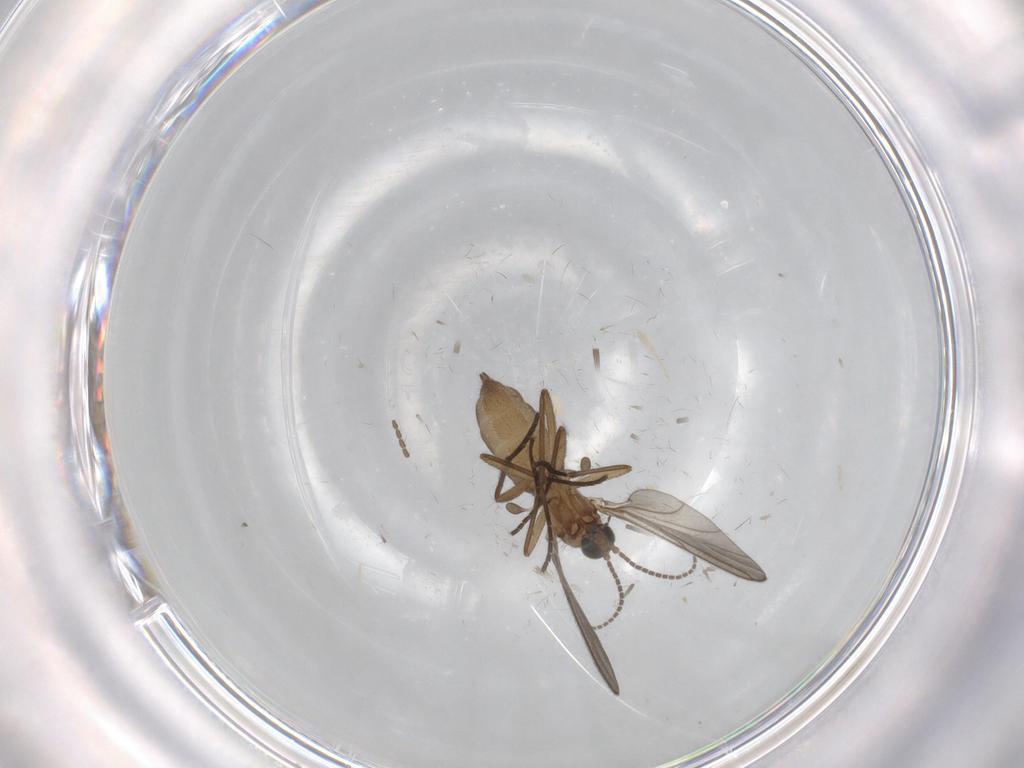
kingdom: Animalia
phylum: Arthropoda
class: Insecta
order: Diptera
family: Sciaridae
